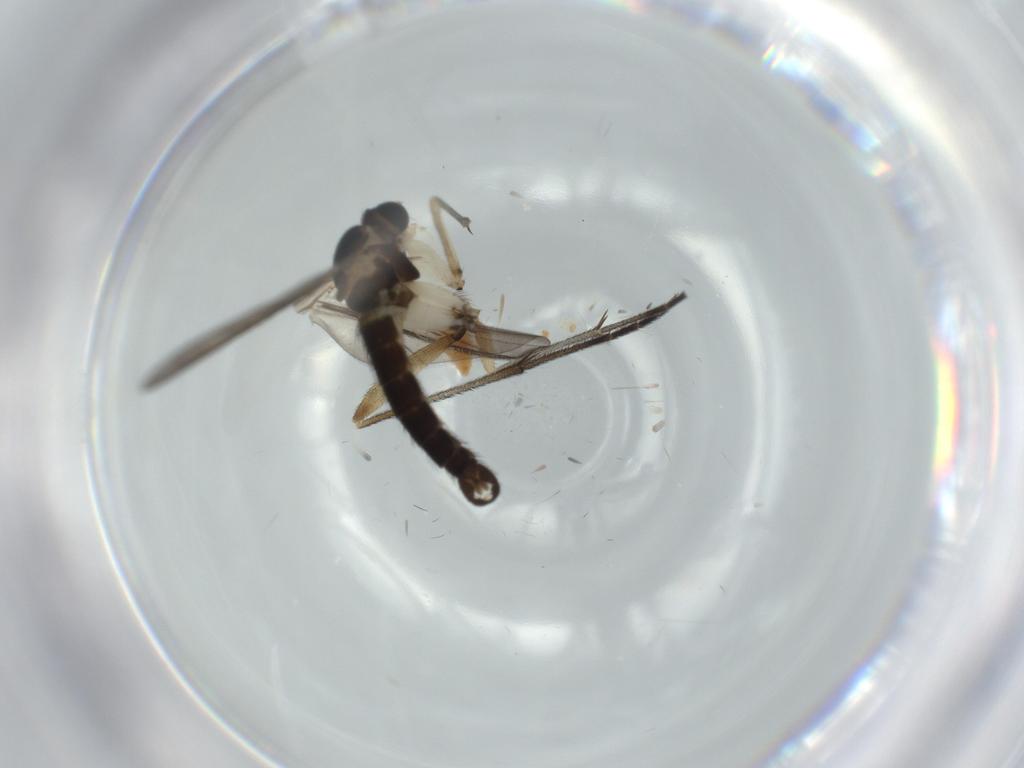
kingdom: Animalia
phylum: Arthropoda
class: Insecta
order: Diptera
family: Sciaridae
